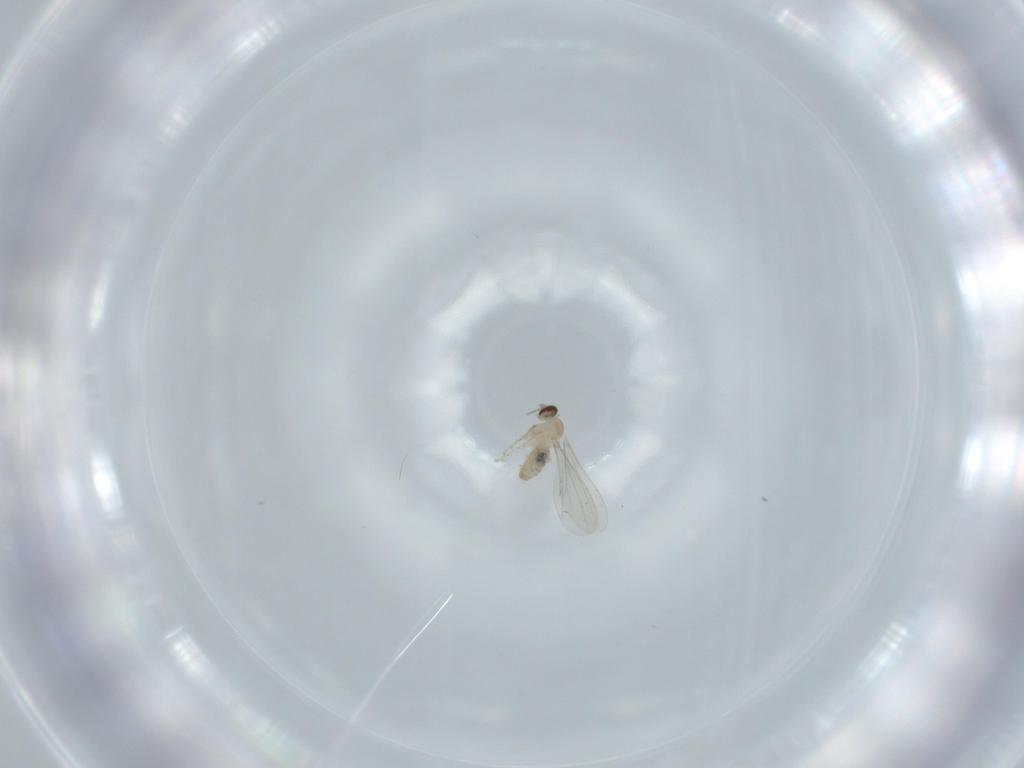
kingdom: Animalia
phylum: Arthropoda
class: Insecta
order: Diptera
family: Cecidomyiidae
